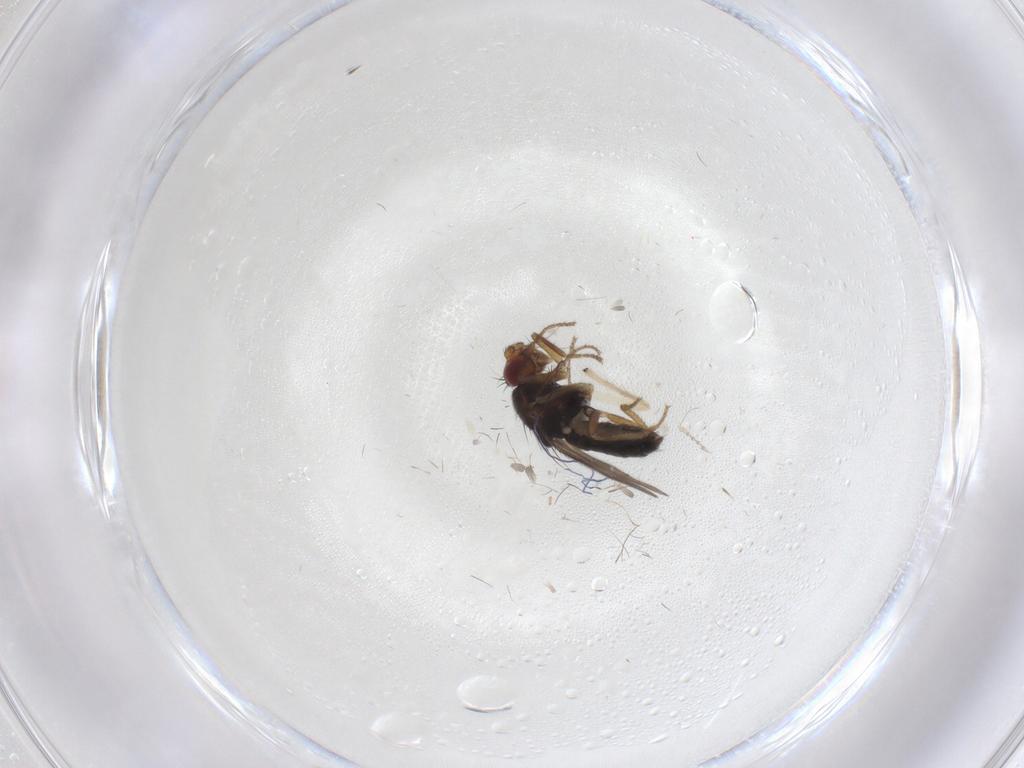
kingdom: Animalia
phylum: Arthropoda
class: Insecta
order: Diptera
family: Sphaeroceridae
